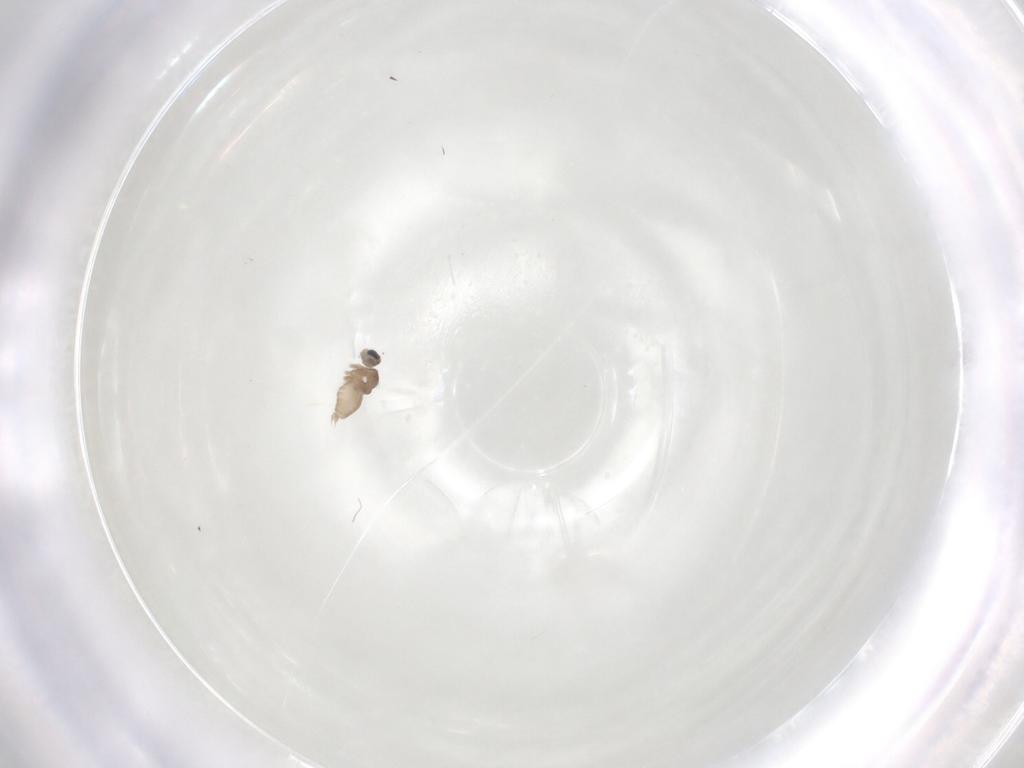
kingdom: Animalia
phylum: Arthropoda
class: Insecta
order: Diptera
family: Cecidomyiidae
